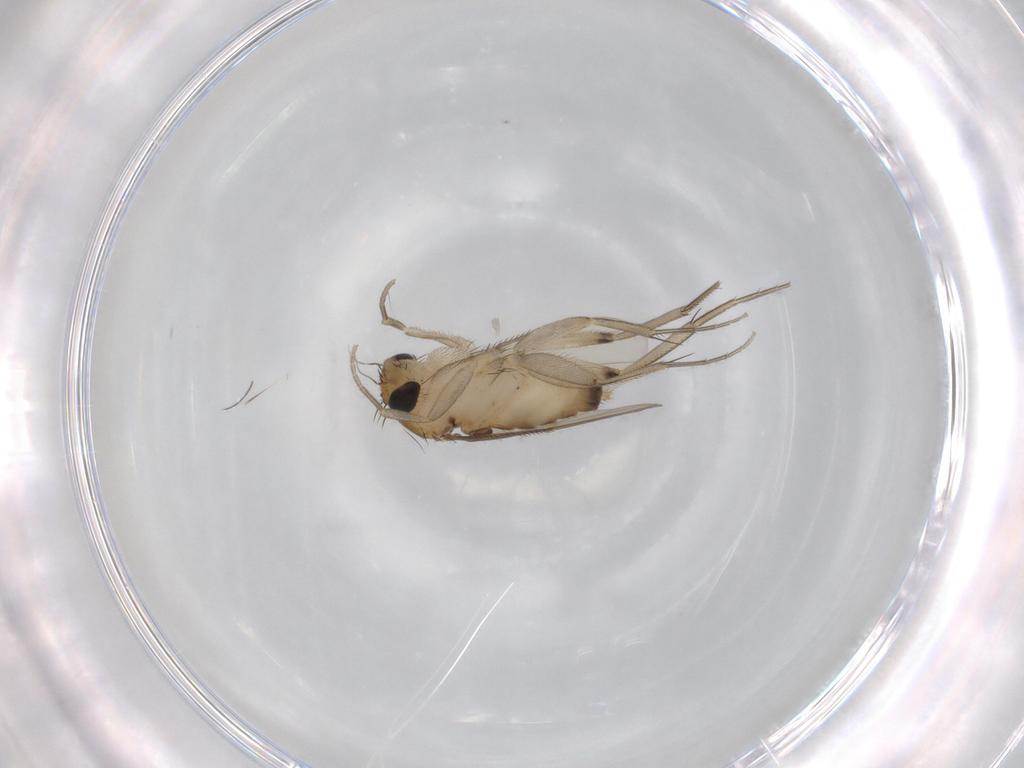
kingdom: Animalia
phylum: Arthropoda
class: Insecta
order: Diptera
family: Phoridae
